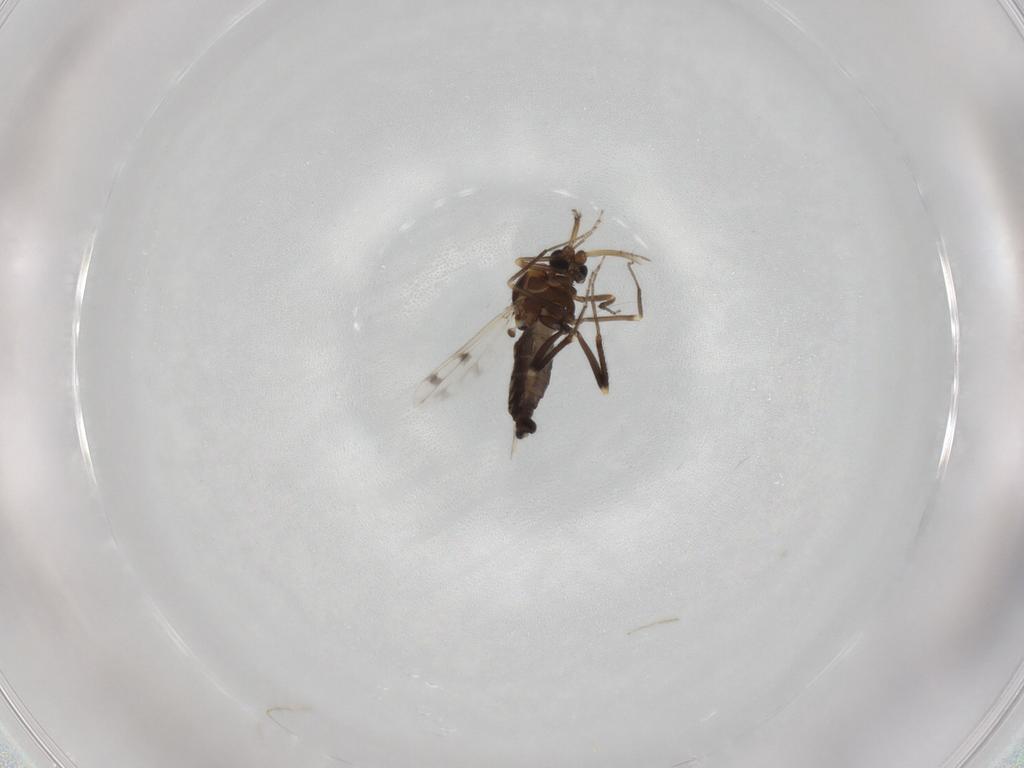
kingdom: Animalia
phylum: Arthropoda
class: Insecta
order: Diptera
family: Ceratopogonidae
